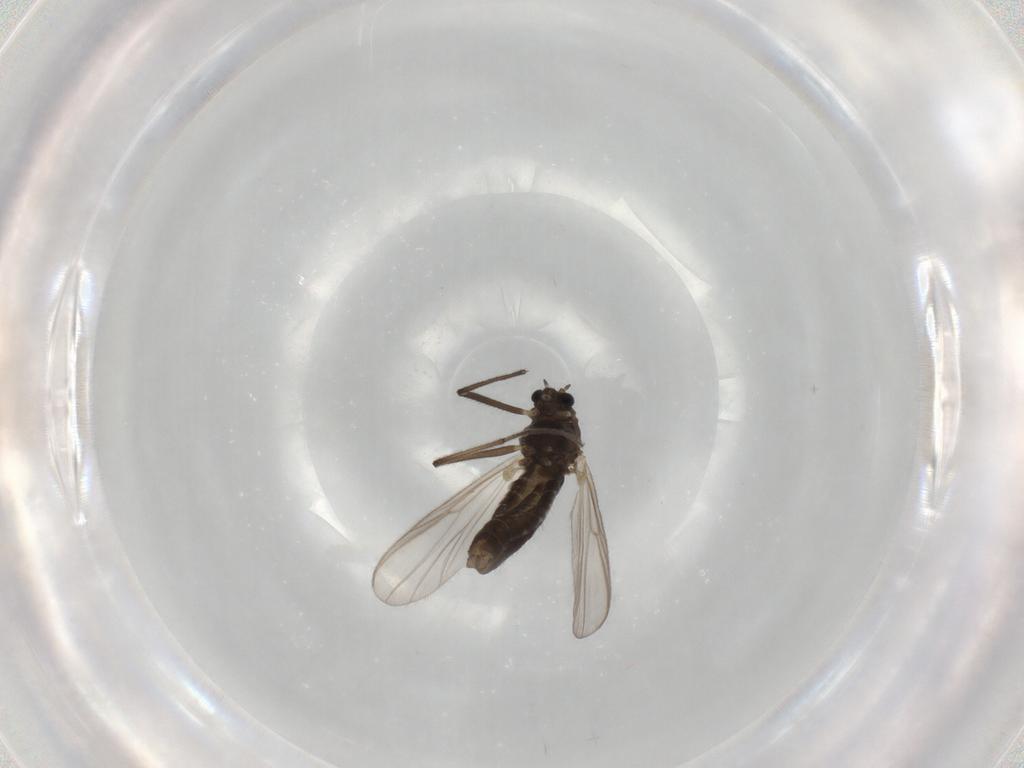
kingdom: Animalia
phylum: Arthropoda
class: Insecta
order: Diptera
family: Chironomidae
